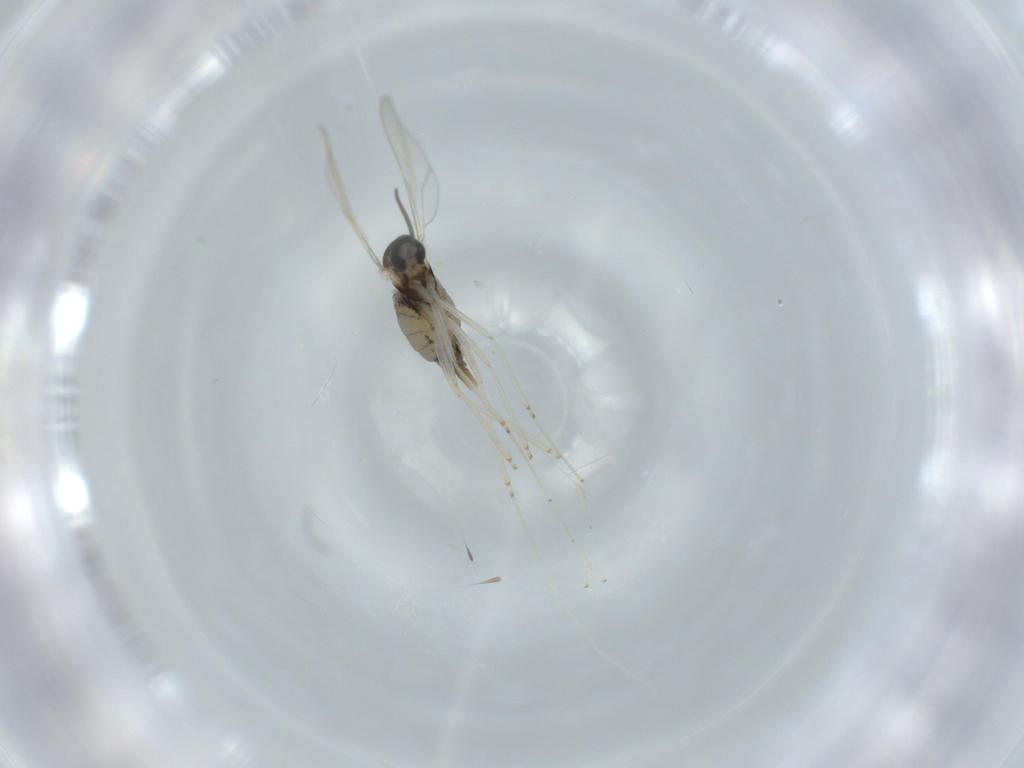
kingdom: Animalia
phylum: Arthropoda
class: Insecta
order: Diptera
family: Cecidomyiidae
